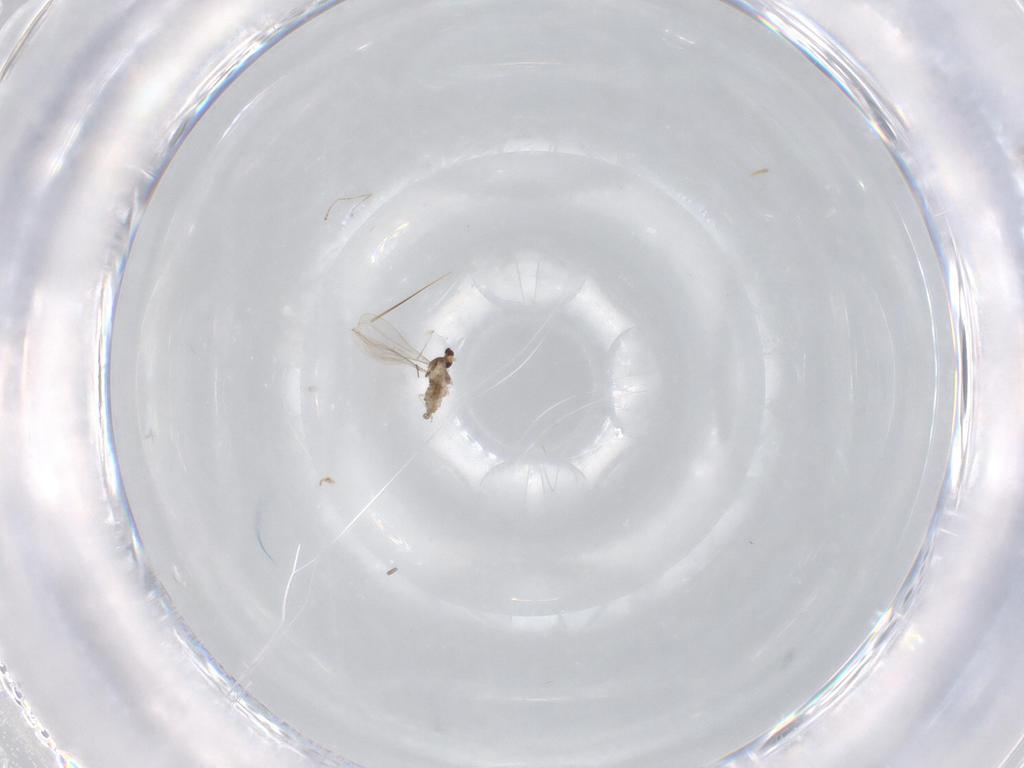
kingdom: Animalia
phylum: Arthropoda
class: Insecta
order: Diptera
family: Cecidomyiidae
